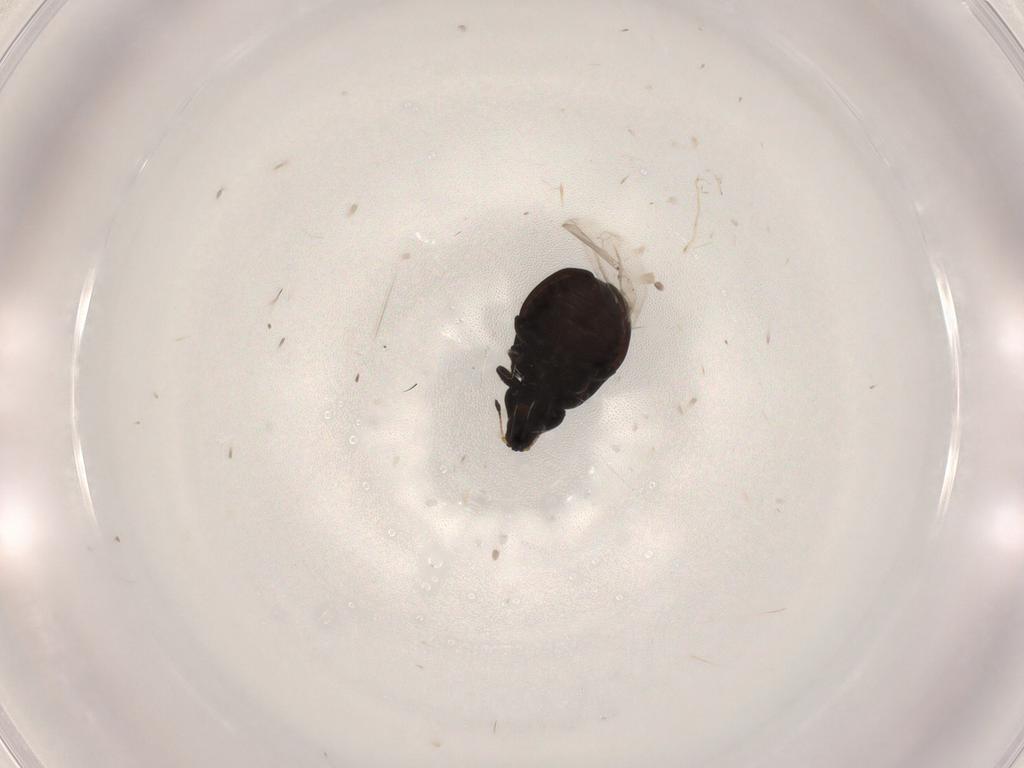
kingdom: Animalia
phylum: Arthropoda
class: Insecta
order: Coleoptera
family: Curculionidae
